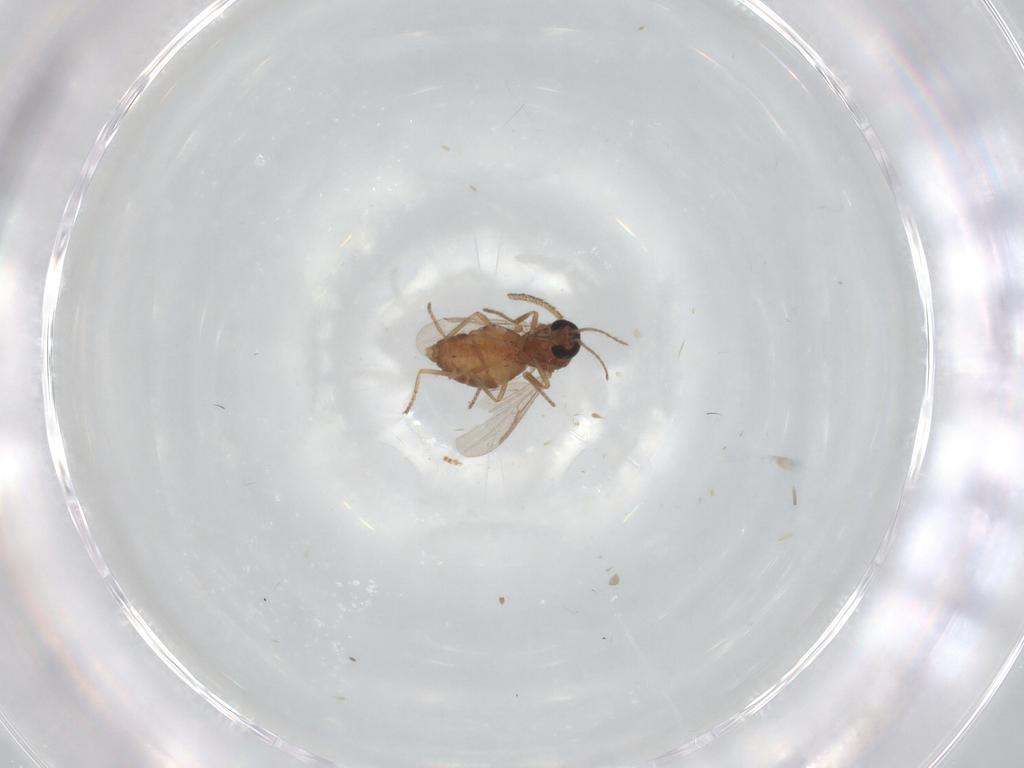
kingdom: Animalia
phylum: Arthropoda
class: Insecta
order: Diptera
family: Ceratopogonidae
